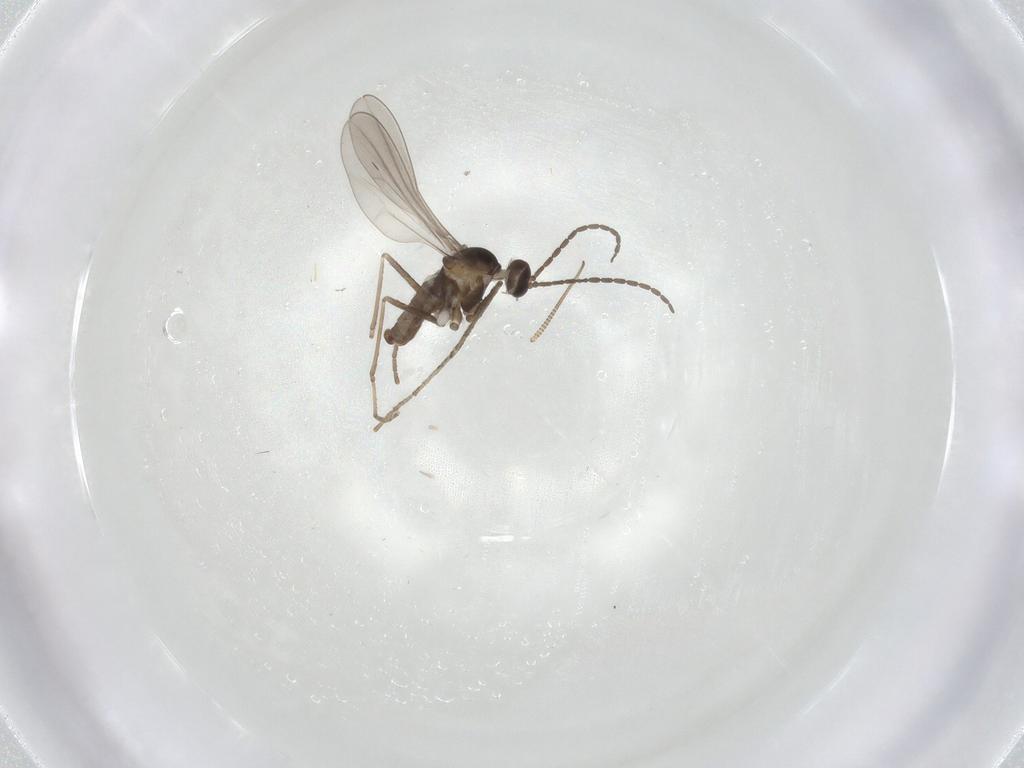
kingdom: Animalia
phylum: Arthropoda
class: Insecta
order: Diptera
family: Cecidomyiidae
